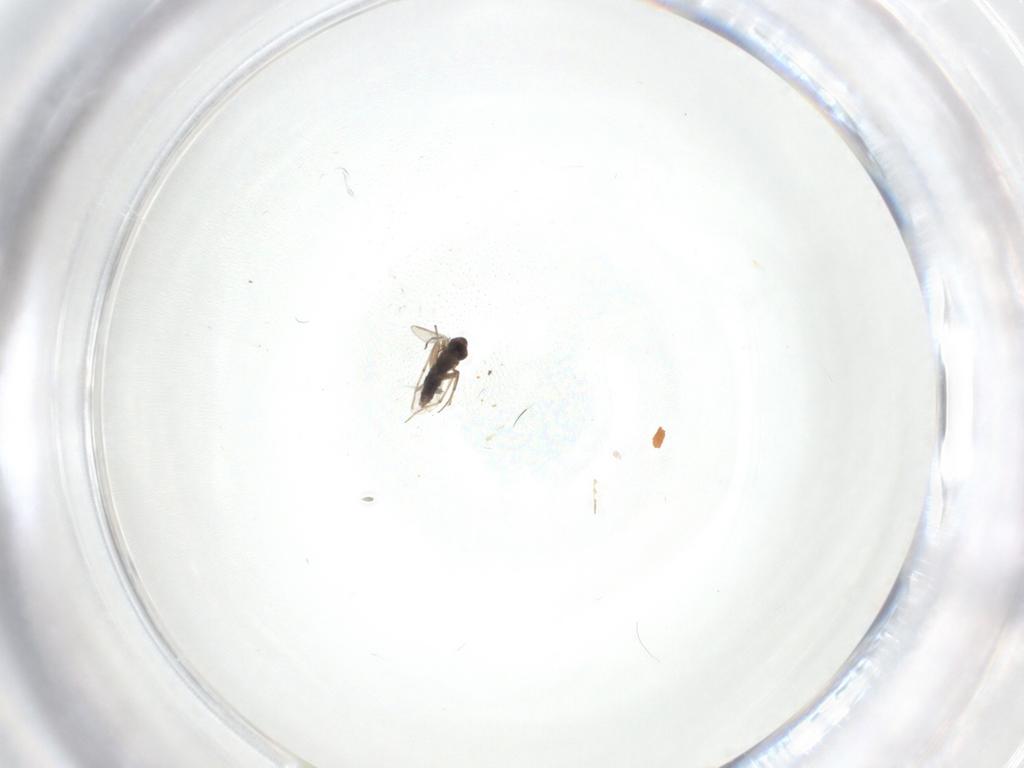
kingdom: Animalia
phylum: Arthropoda
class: Insecta
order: Diptera
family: Chironomidae
